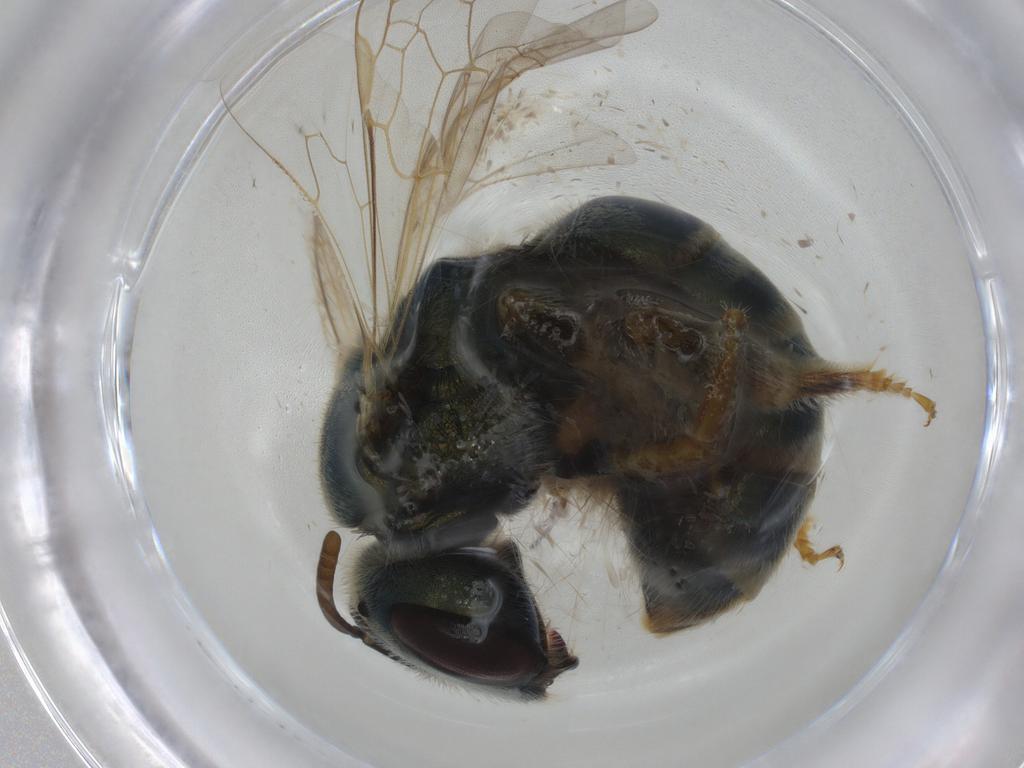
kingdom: Animalia
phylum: Arthropoda
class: Insecta
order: Hymenoptera
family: Halictidae
